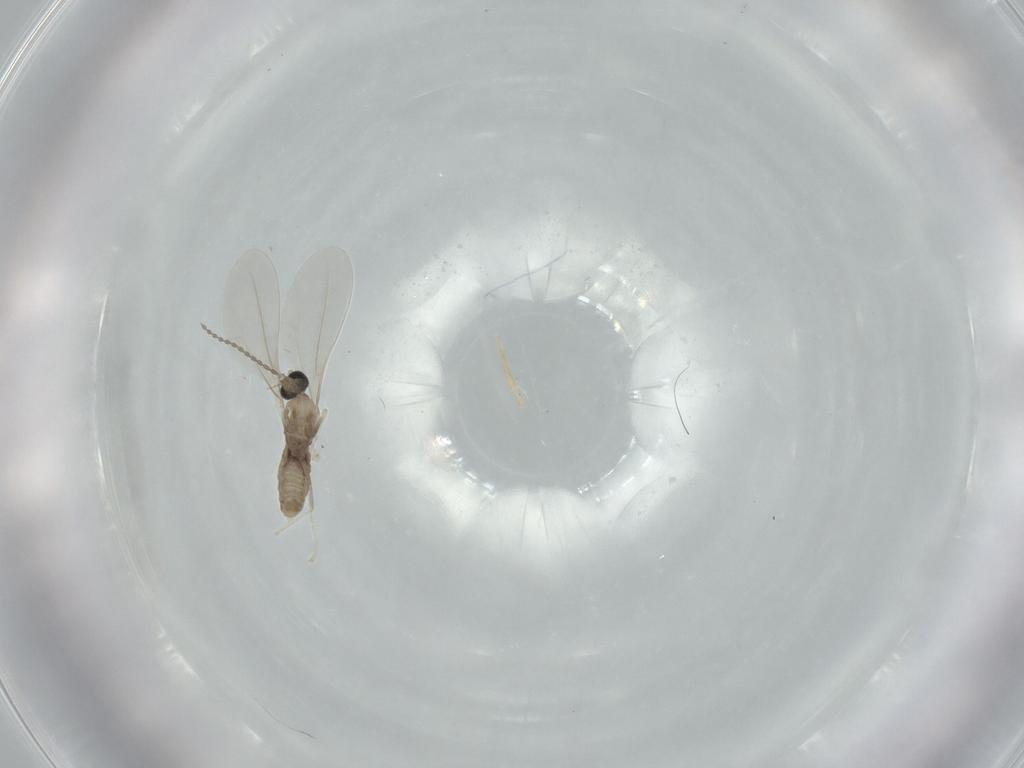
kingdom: Animalia
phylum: Arthropoda
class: Insecta
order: Diptera
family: Cecidomyiidae
